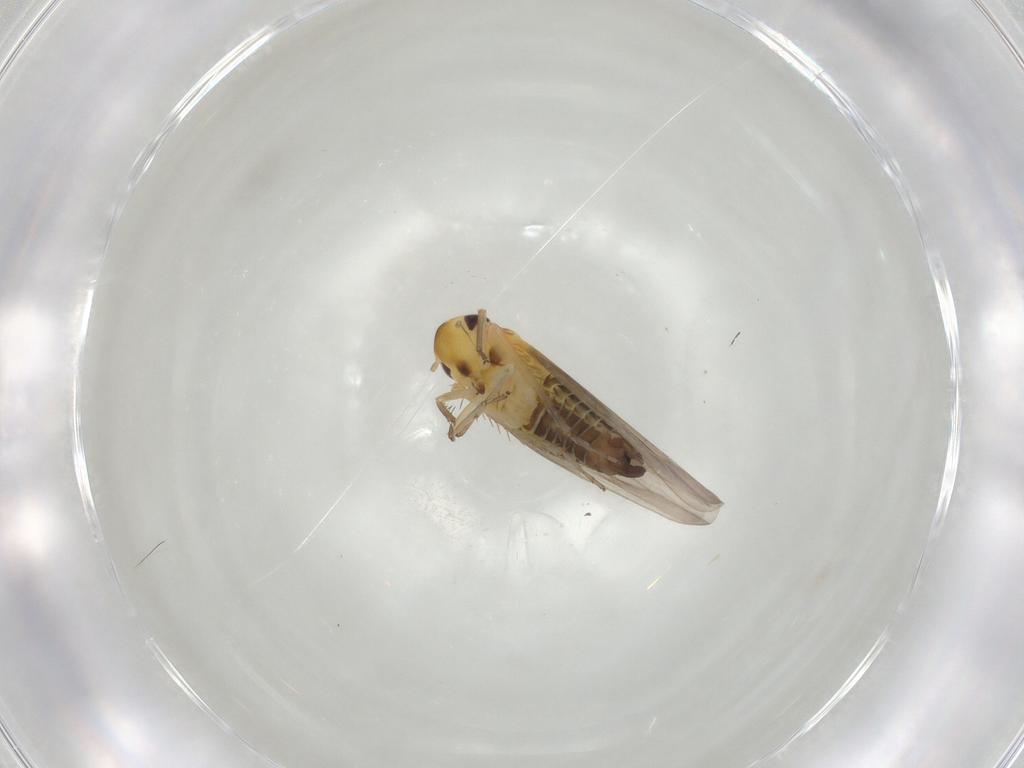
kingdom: Animalia
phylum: Arthropoda
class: Insecta
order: Hemiptera
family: Cicadellidae
